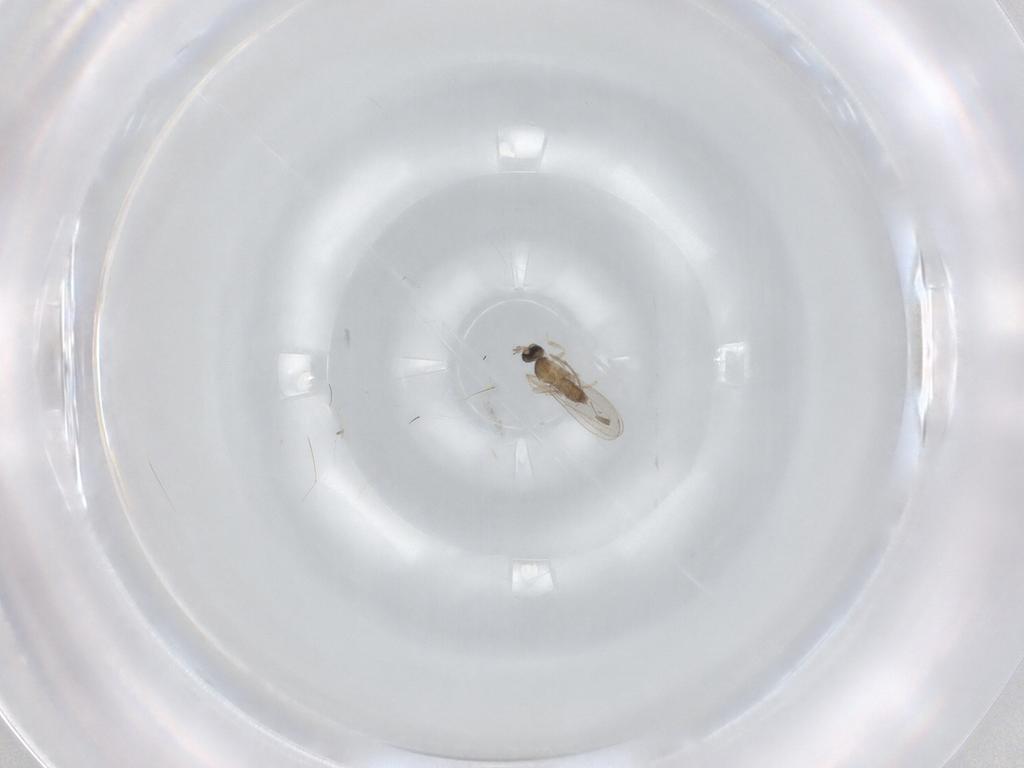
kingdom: Animalia
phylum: Arthropoda
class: Insecta
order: Diptera
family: Cecidomyiidae
